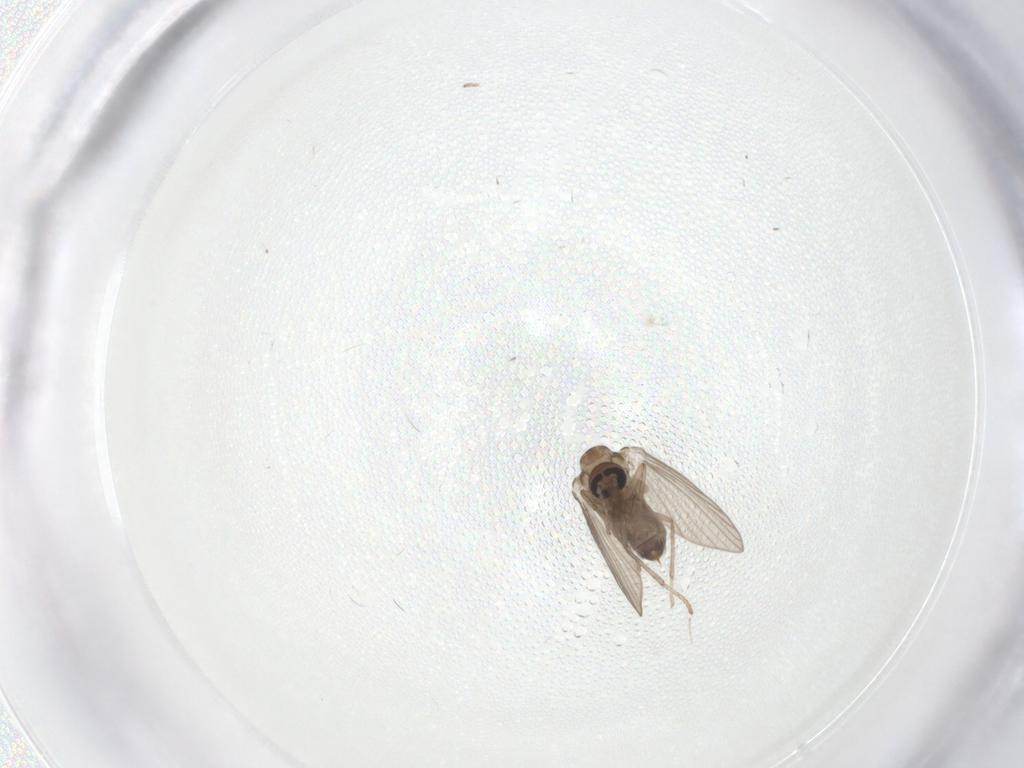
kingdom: Animalia
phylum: Arthropoda
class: Insecta
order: Diptera
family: Psychodidae
